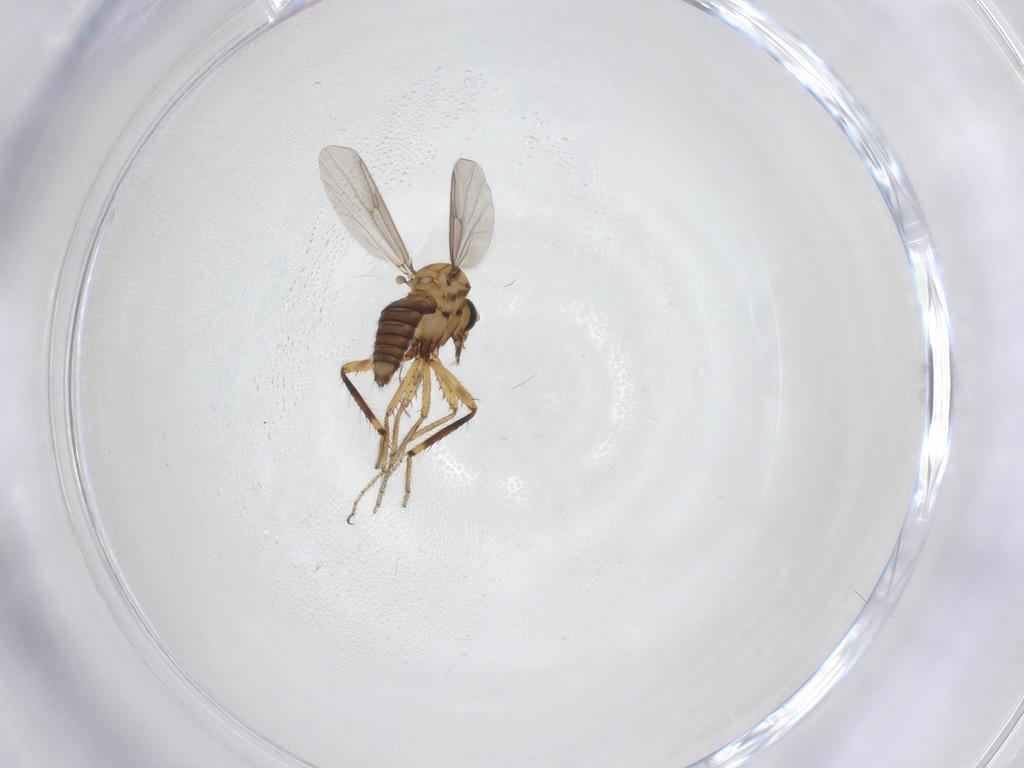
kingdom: Animalia
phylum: Arthropoda
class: Insecta
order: Diptera
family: Ceratopogonidae
